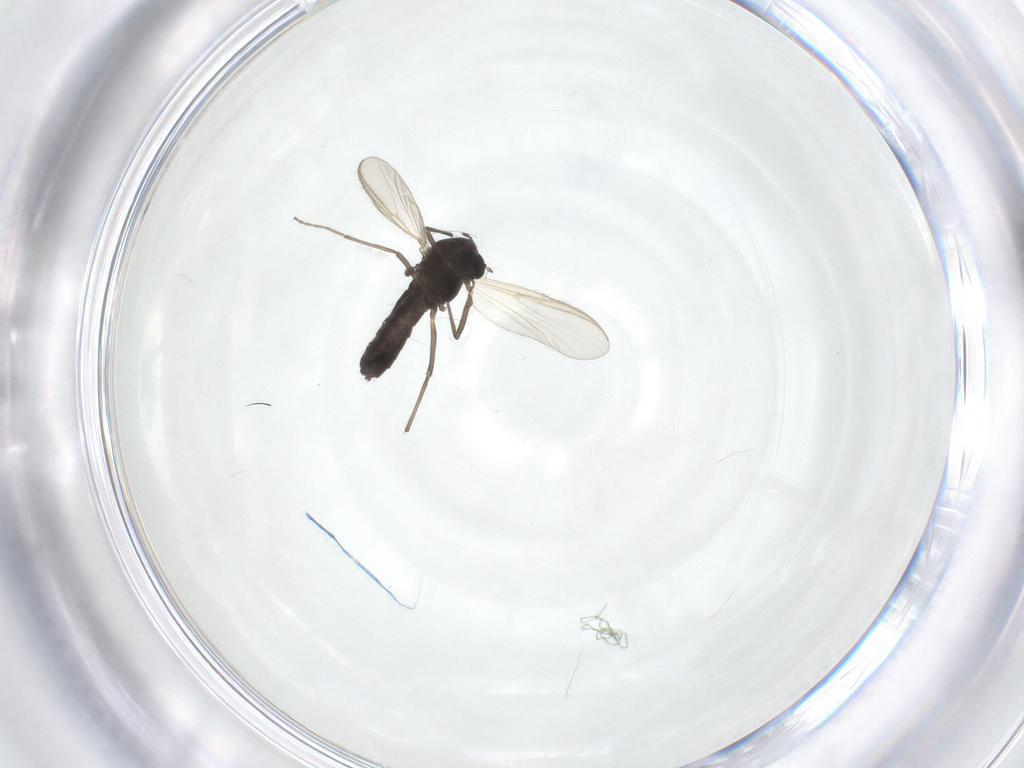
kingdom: Animalia
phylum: Arthropoda
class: Insecta
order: Diptera
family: Chironomidae
